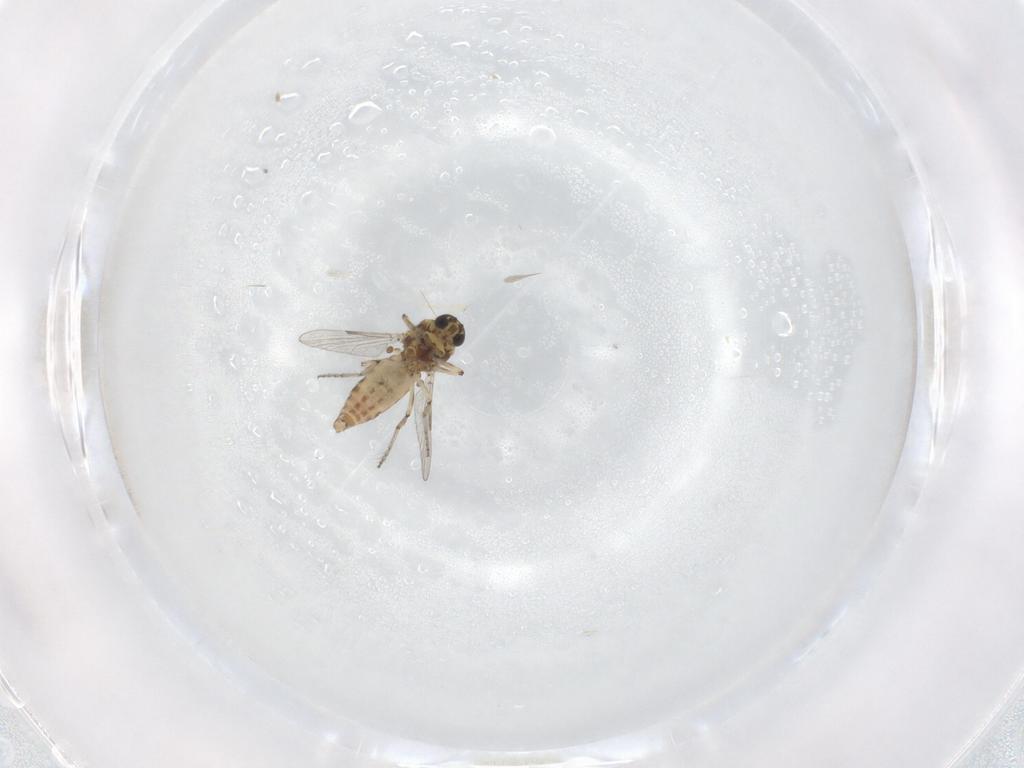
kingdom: Animalia
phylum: Arthropoda
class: Insecta
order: Diptera
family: Ceratopogonidae
